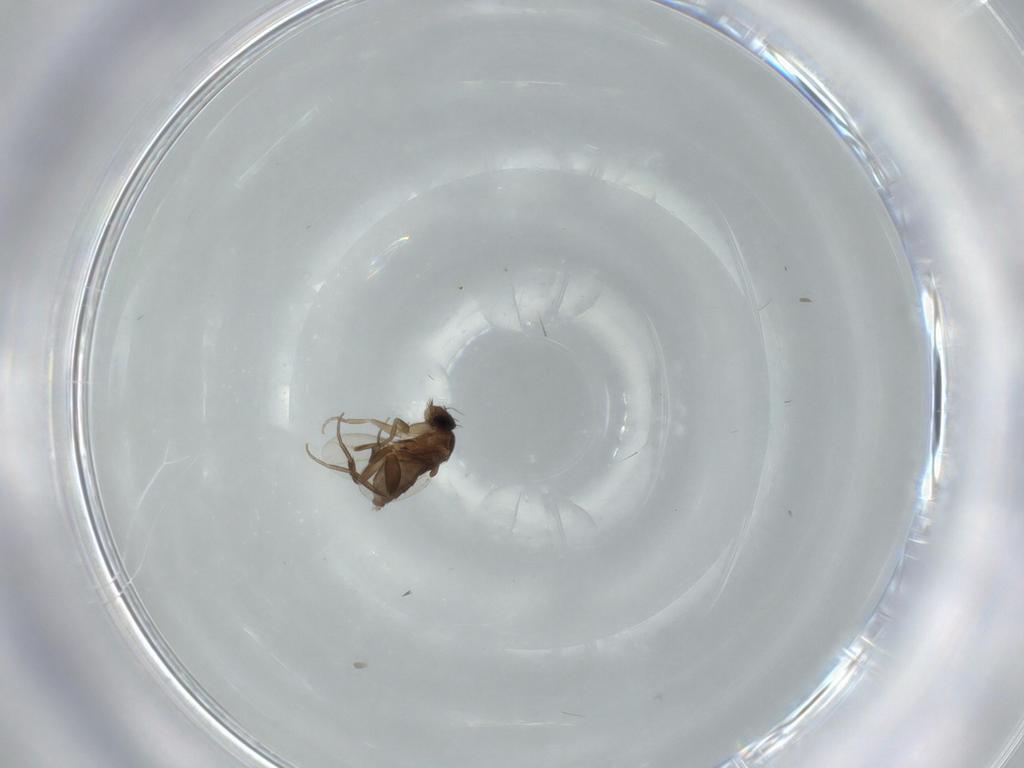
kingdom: Animalia
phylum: Arthropoda
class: Insecta
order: Diptera
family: Phoridae
